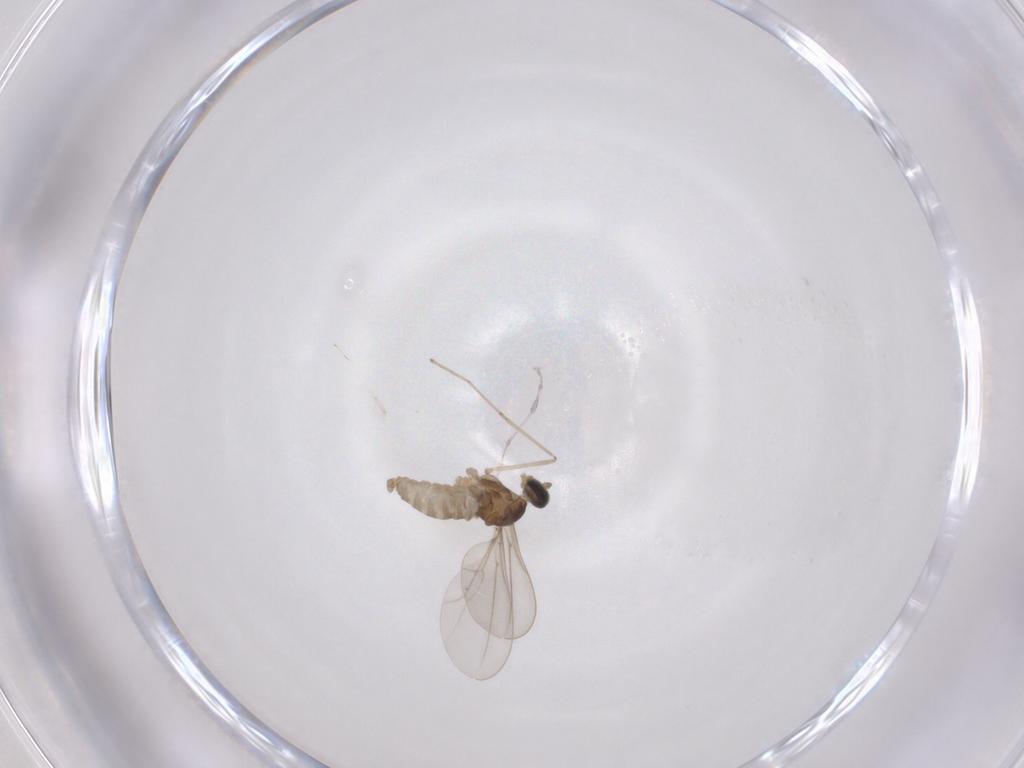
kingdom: Animalia
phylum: Arthropoda
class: Insecta
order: Diptera
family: Cecidomyiidae
